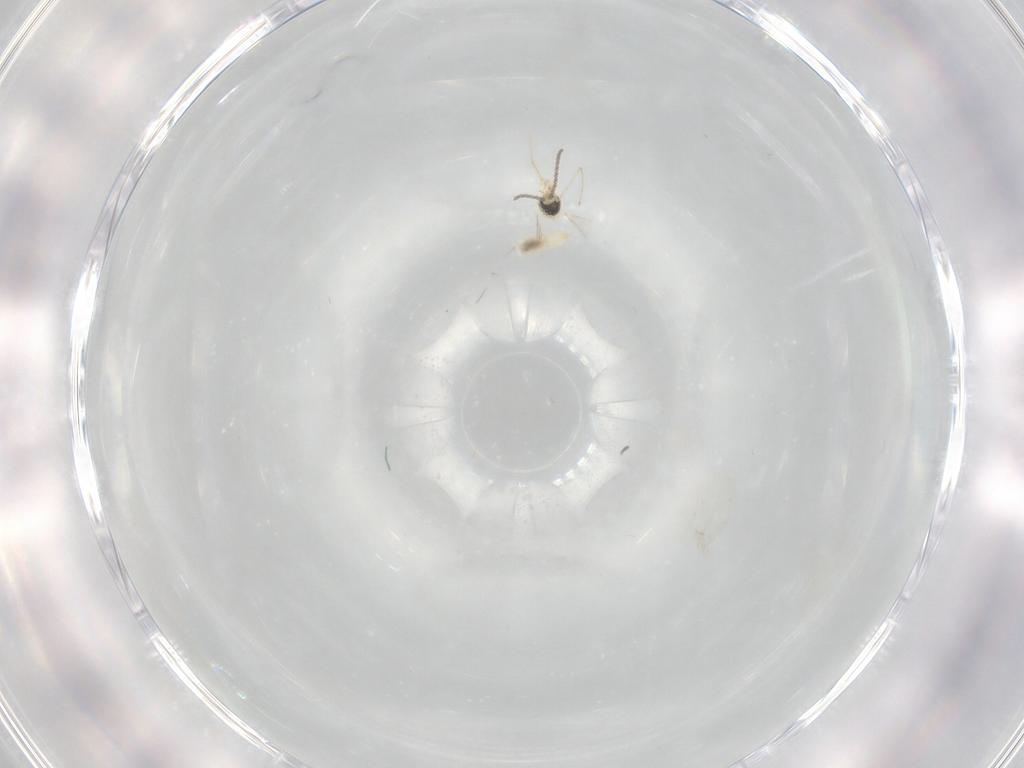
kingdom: Animalia
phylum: Arthropoda
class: Insecta
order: Diptera
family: Cecidomyiidae
